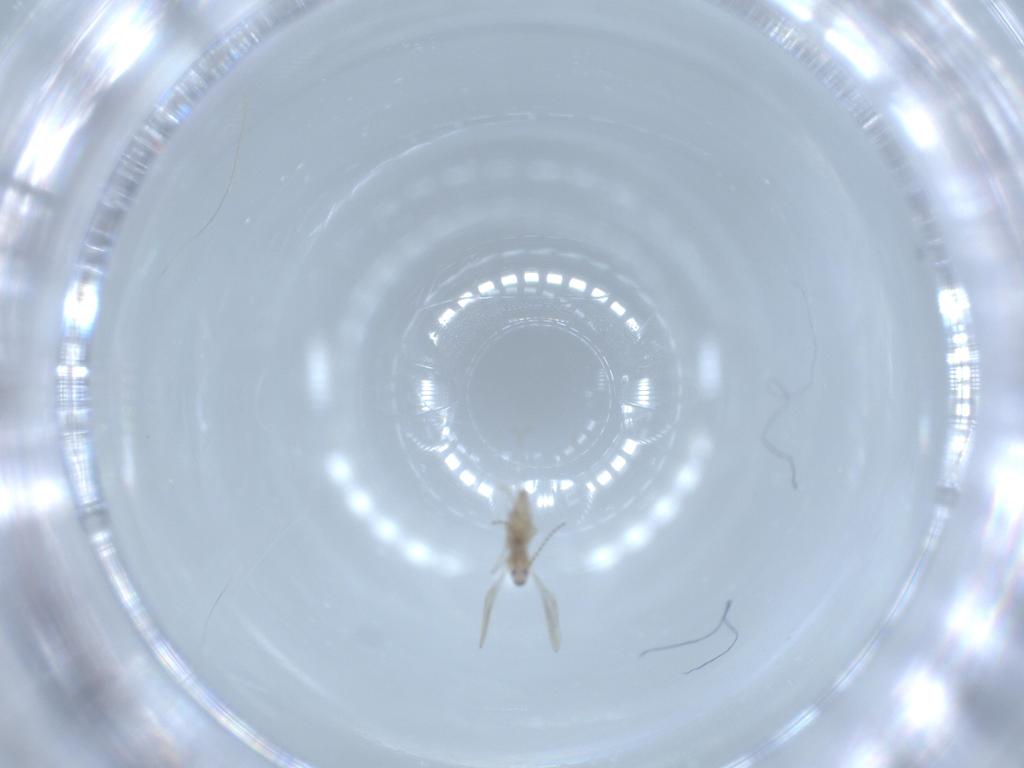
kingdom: Animalia
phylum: Arthropoda
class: Insecta
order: Diptera
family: Cecidomyiidae
